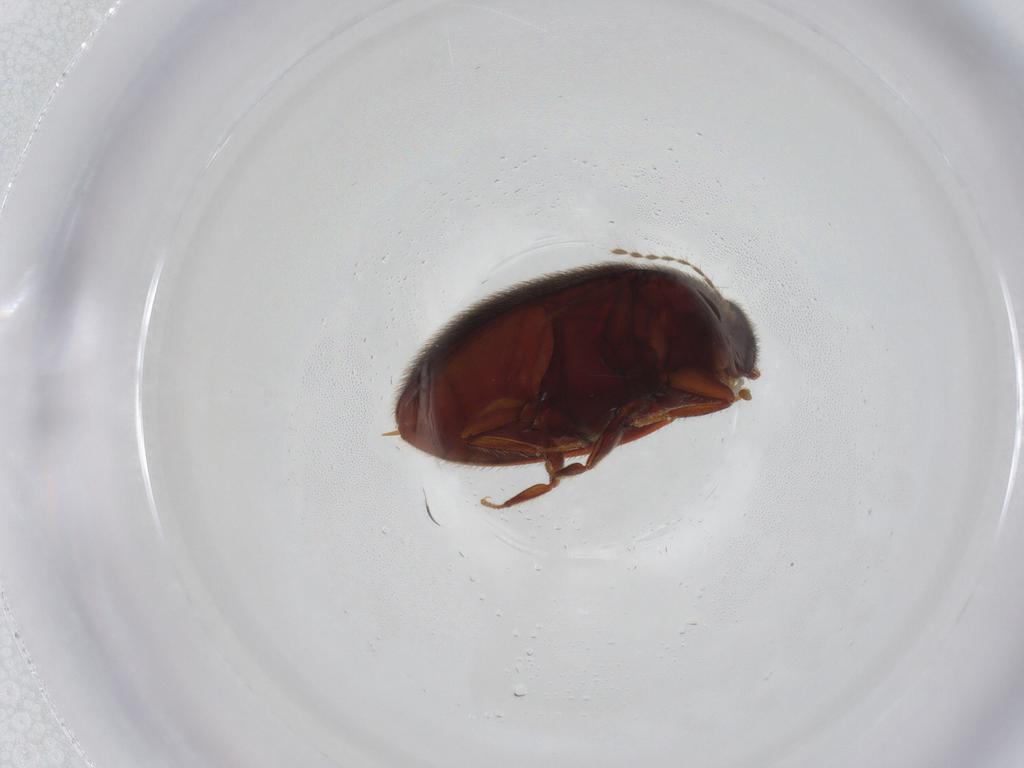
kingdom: Animalia
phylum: Arthropoda
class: Insecta
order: Coleoptera
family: Limnichidae
